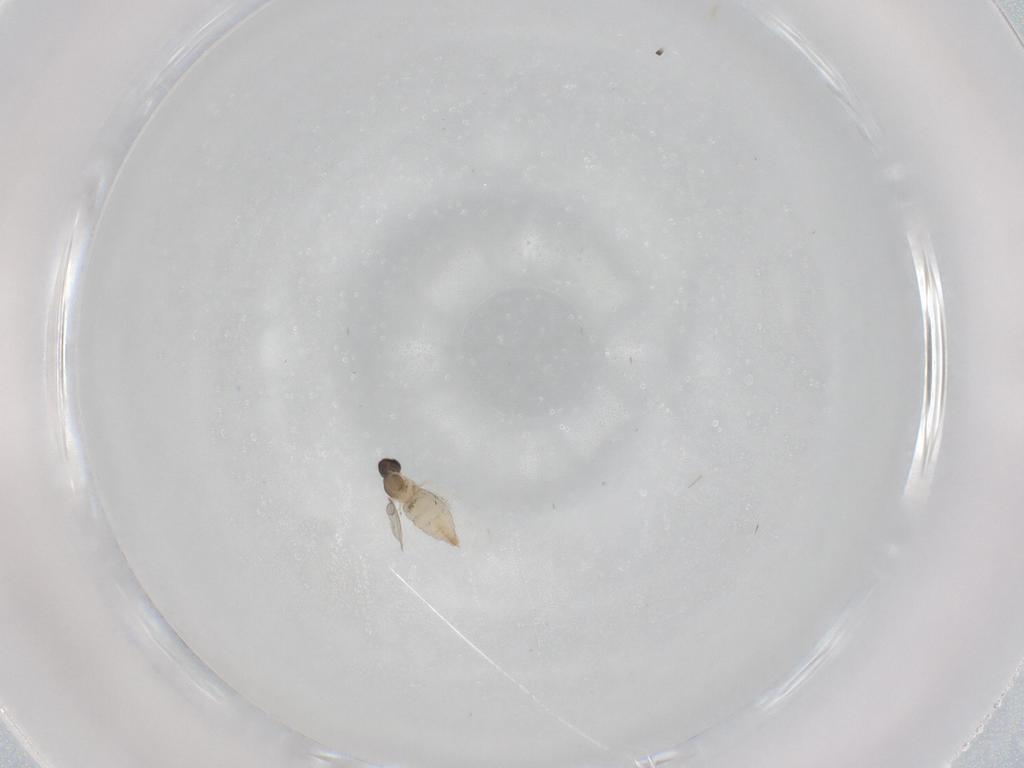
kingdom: Animalia
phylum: Arthropoda
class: Insecta
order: Diptera
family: Cecidomyiidae
